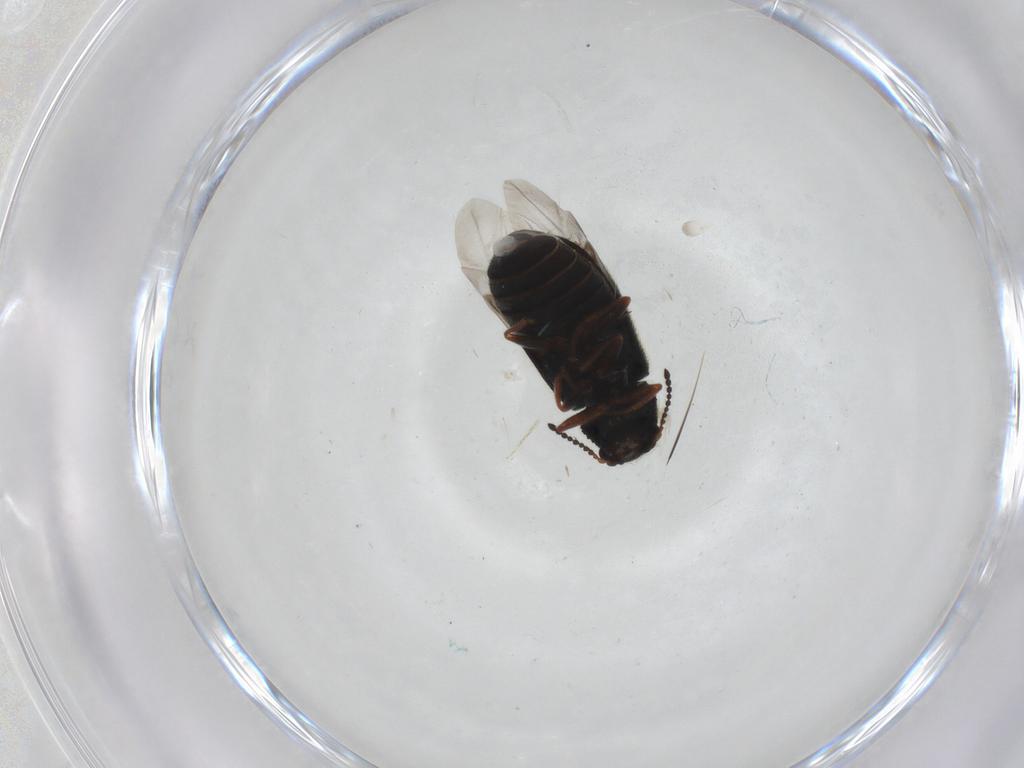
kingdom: Animalia
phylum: Arthropoda
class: Insecta
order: Coleoptera
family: Melyridae
